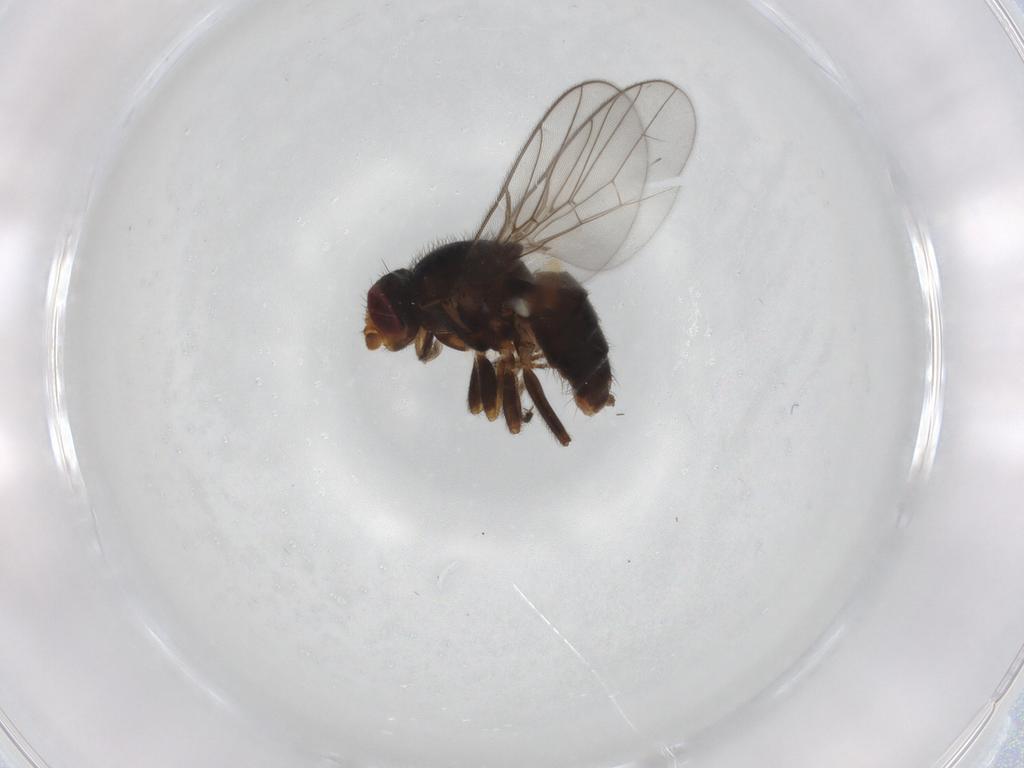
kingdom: Animalia
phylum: Arthropoda
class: Insecta
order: Diptera
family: Chloropidae
